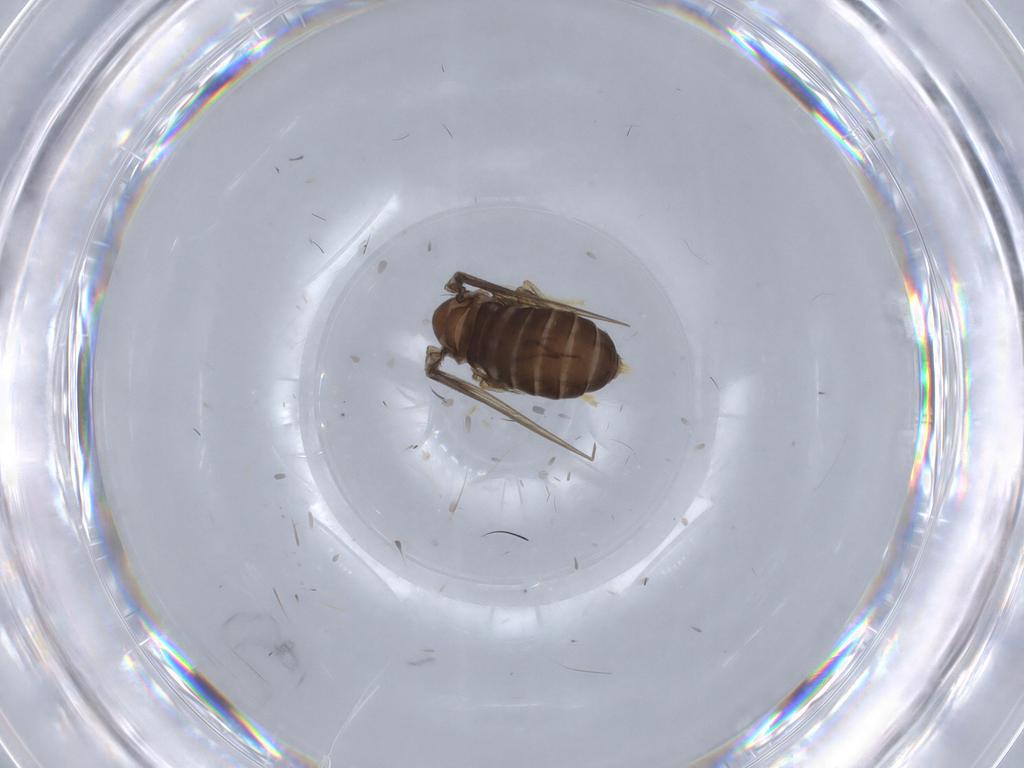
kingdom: Animalia
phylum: Arthropoda
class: Insecta
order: Diptera
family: Psychodidae
